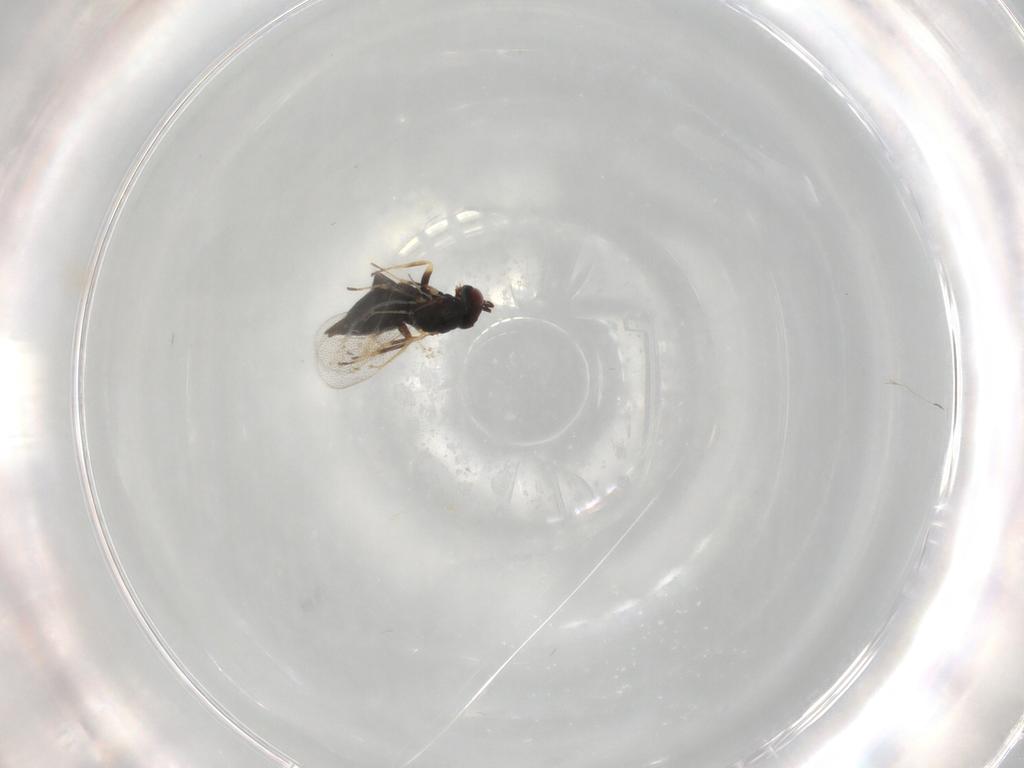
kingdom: Animalia
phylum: Arthropoda
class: Insecta
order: Hymenoptera
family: Eulophidae
